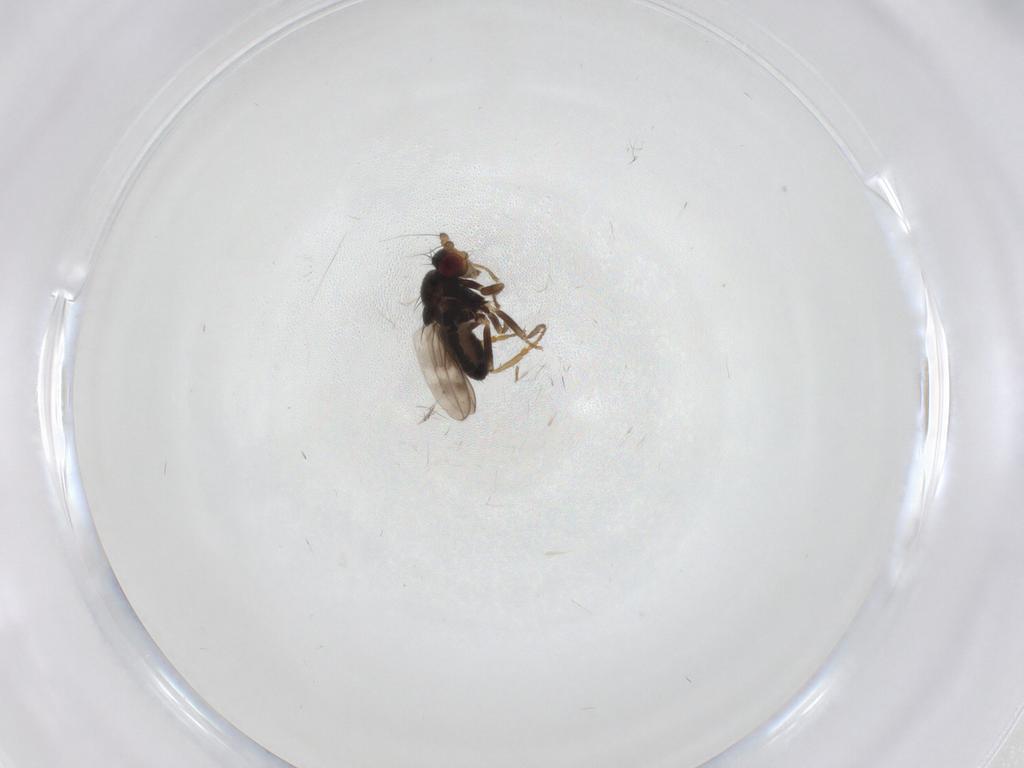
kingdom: Animalia
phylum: Arthropoda
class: Insecta
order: Diptera
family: Sphaeroceridae
